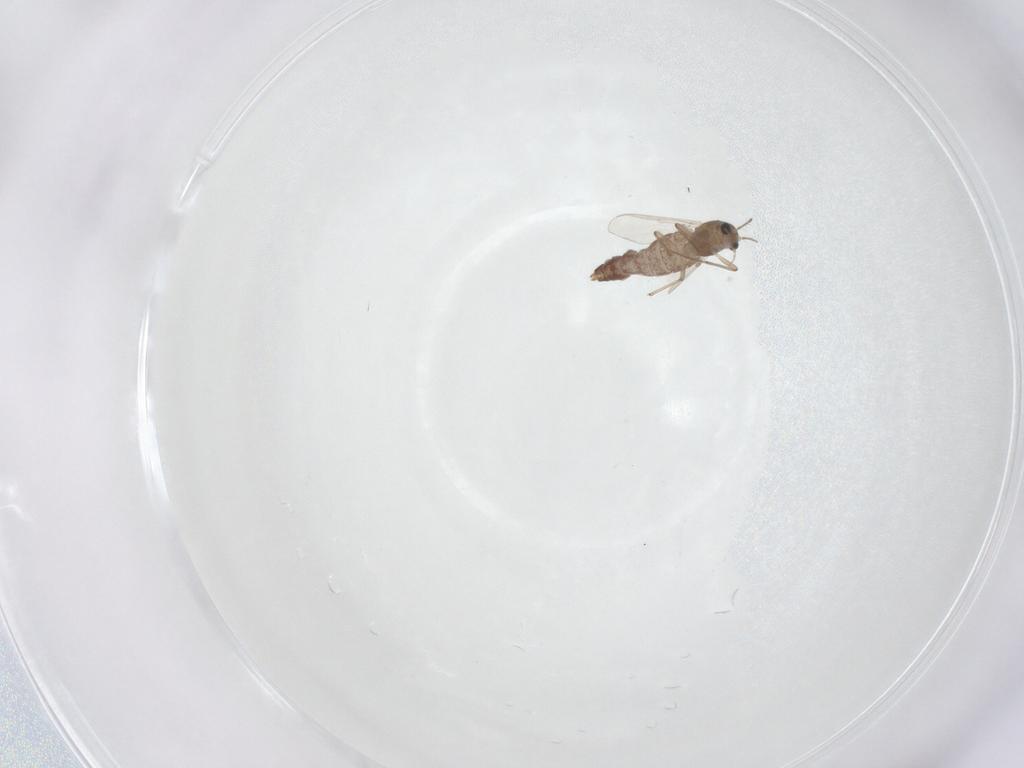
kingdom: Animalia
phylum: Arthropoda
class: Insecta
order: Diptera
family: Chironomidae
